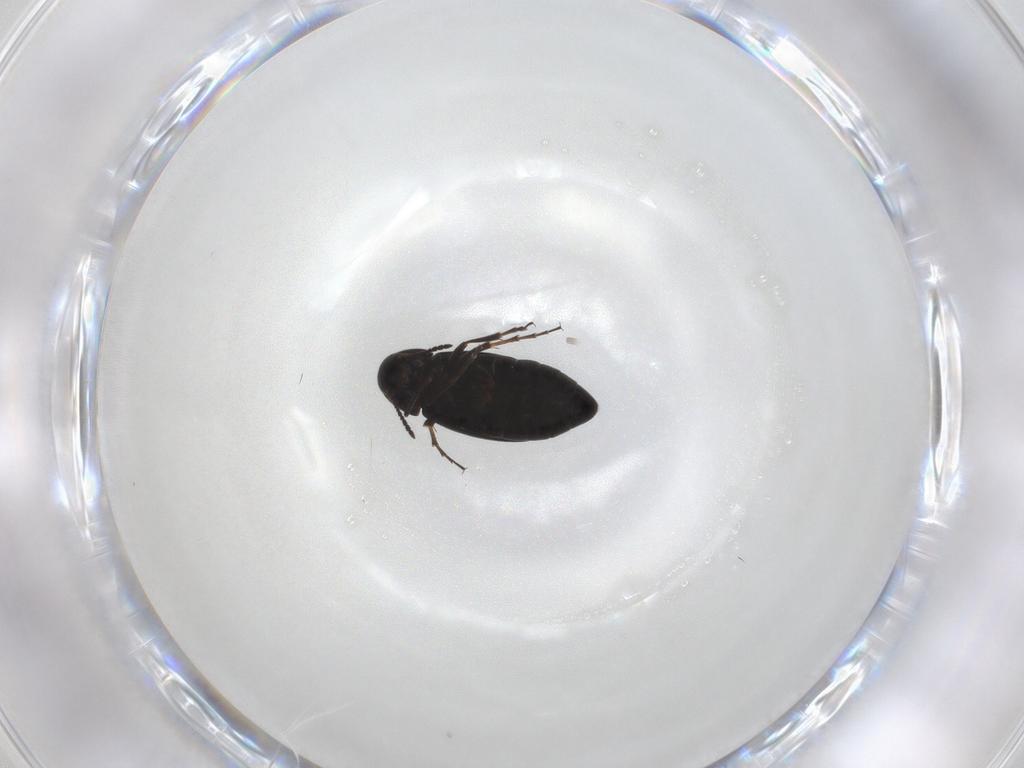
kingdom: Animalia
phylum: Arthropoda
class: Insecta
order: Coleoptera
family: Scraptiidae
